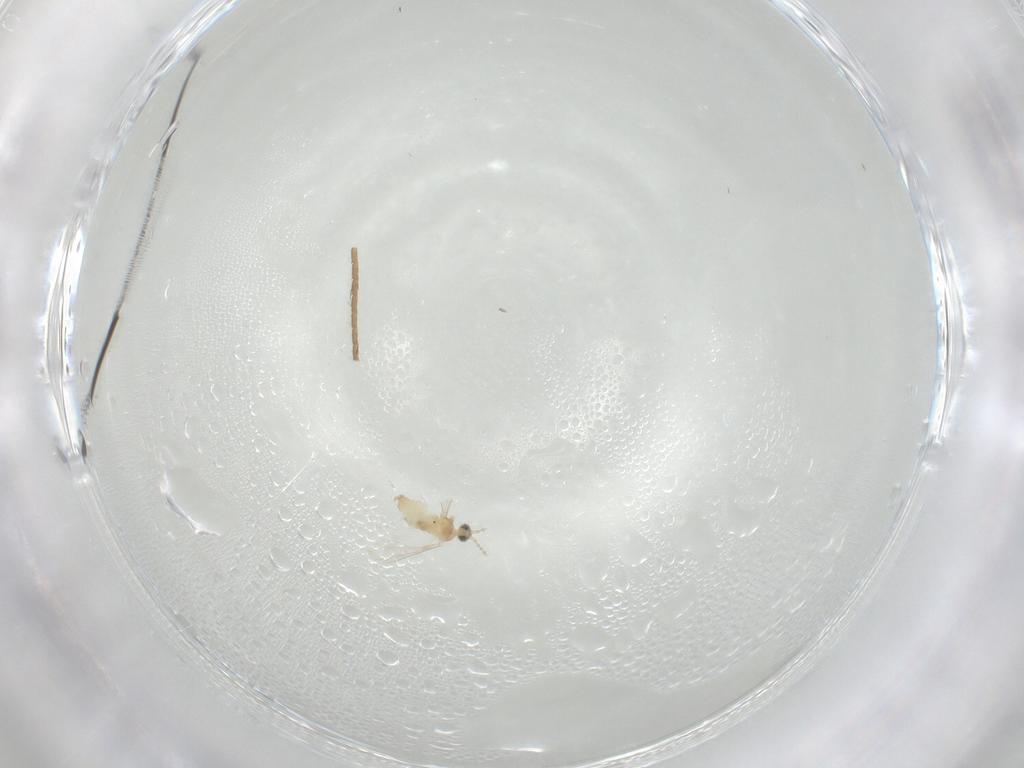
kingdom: Animalia
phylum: Arthropoda
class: Insecta
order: Diptera
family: Cecidomyiidae
